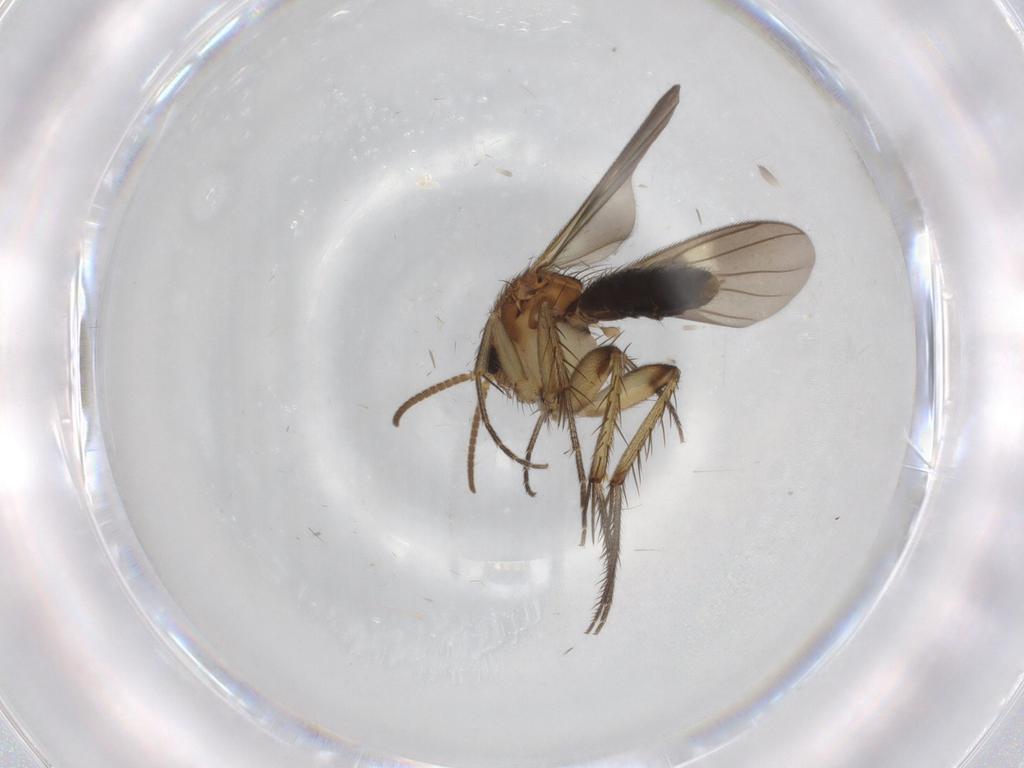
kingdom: Animalia
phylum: Arthropoda
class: Insecta
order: Diptera
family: Mycetophilidae
